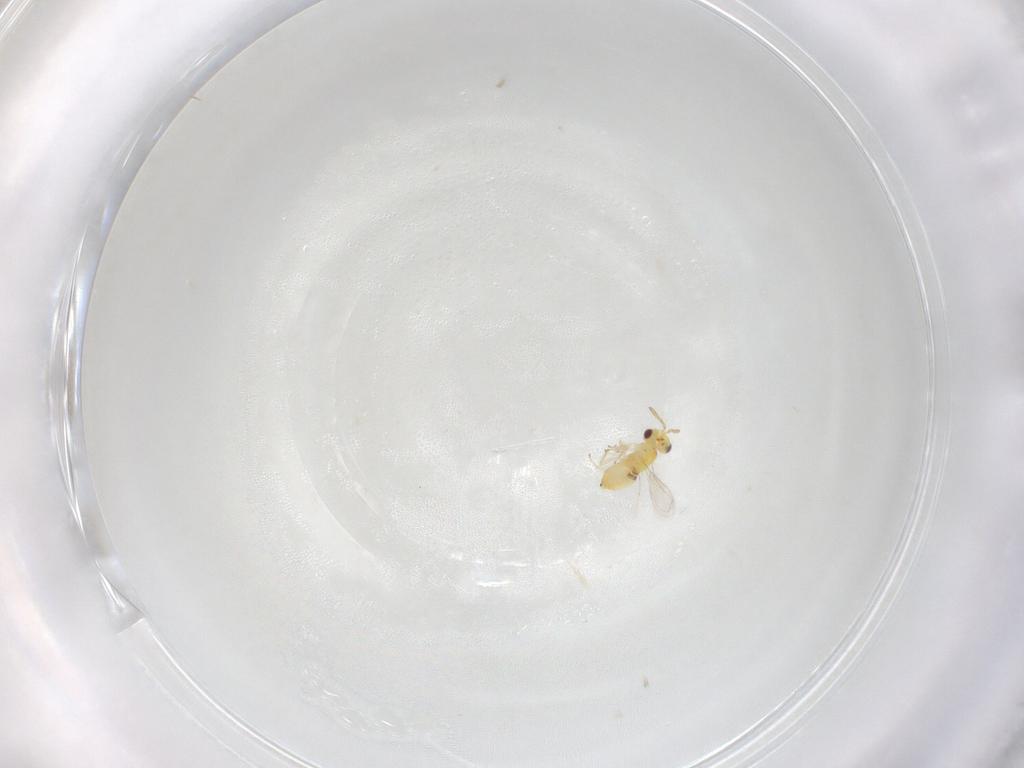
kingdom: Animalia
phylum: Arthropoda
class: Insecta
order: Hymenoptera
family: Aphelinidae
